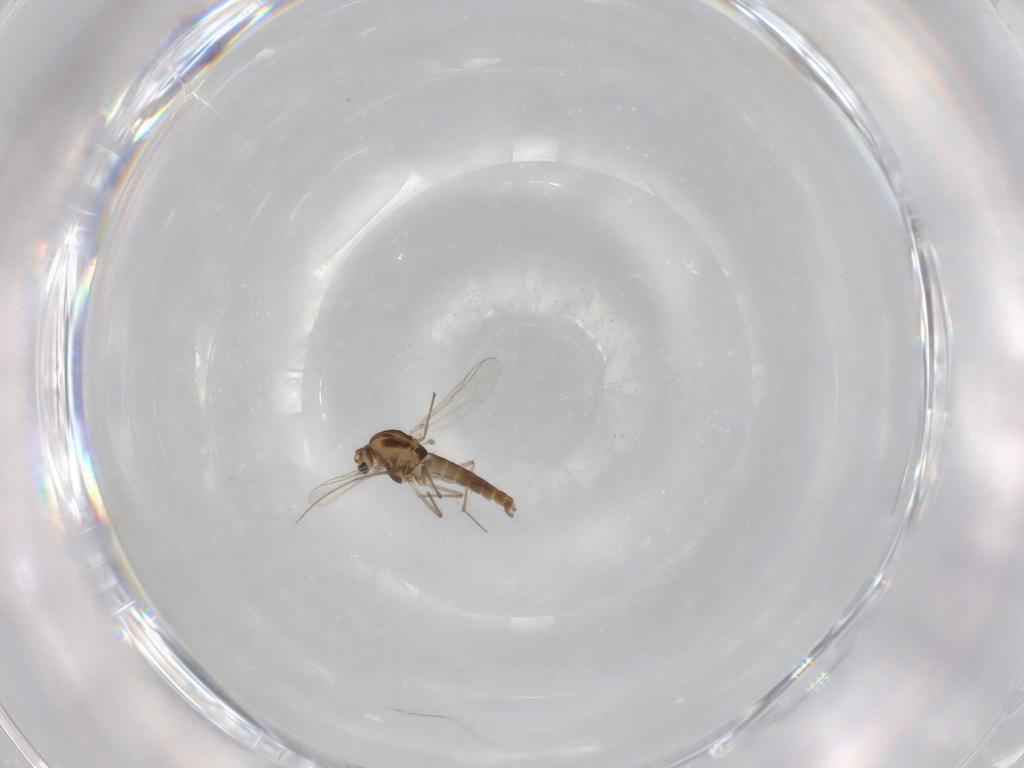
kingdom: Animalia
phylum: Arthropoda
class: Insecta
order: Diptera
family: Chironomidae
